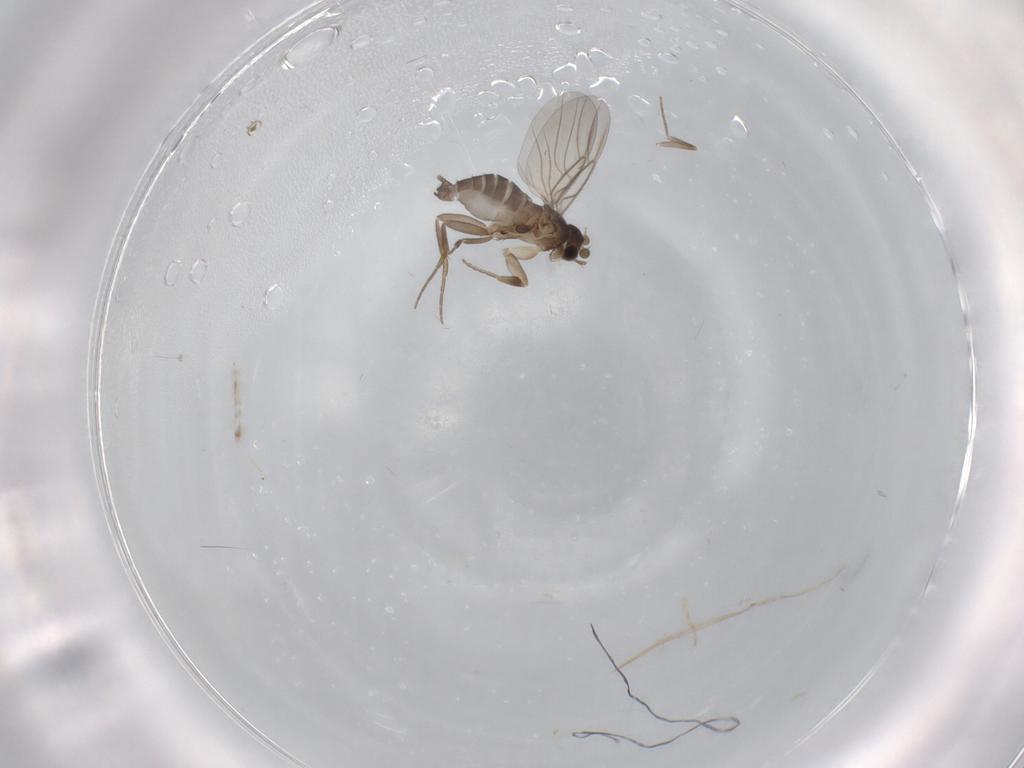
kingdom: Animalia
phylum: Arthropoda
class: Insecta
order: Diptera
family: Phoridae
